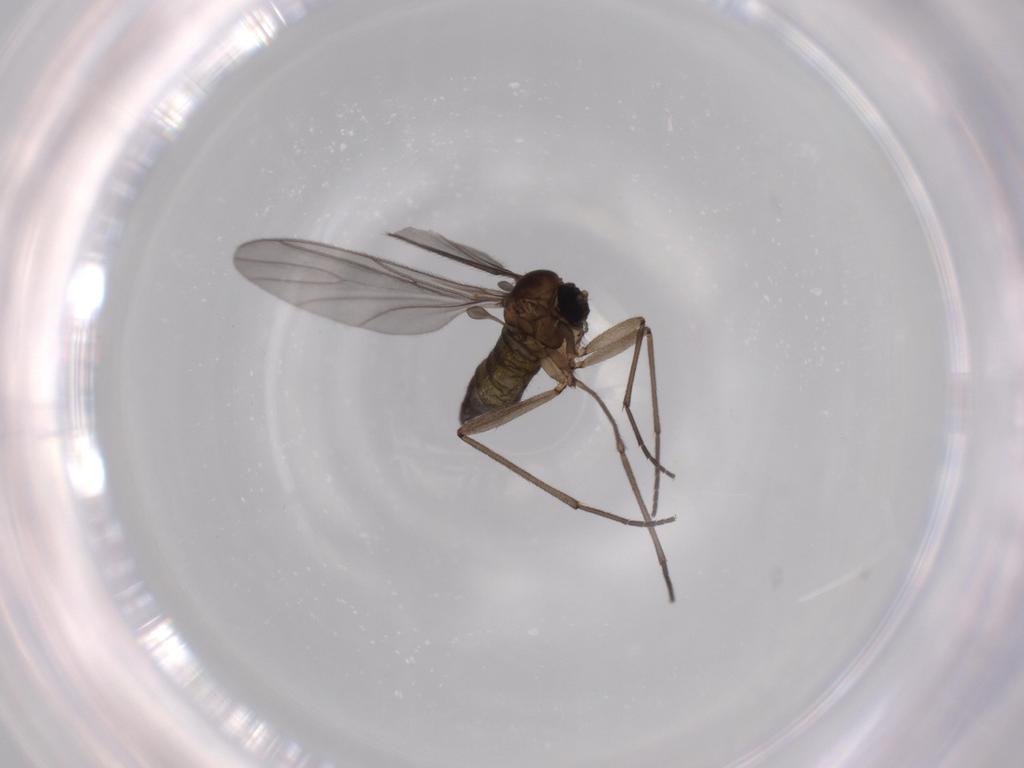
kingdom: Animalia
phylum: Arthropoda
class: Insecta
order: Diptera
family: Sciaridae
